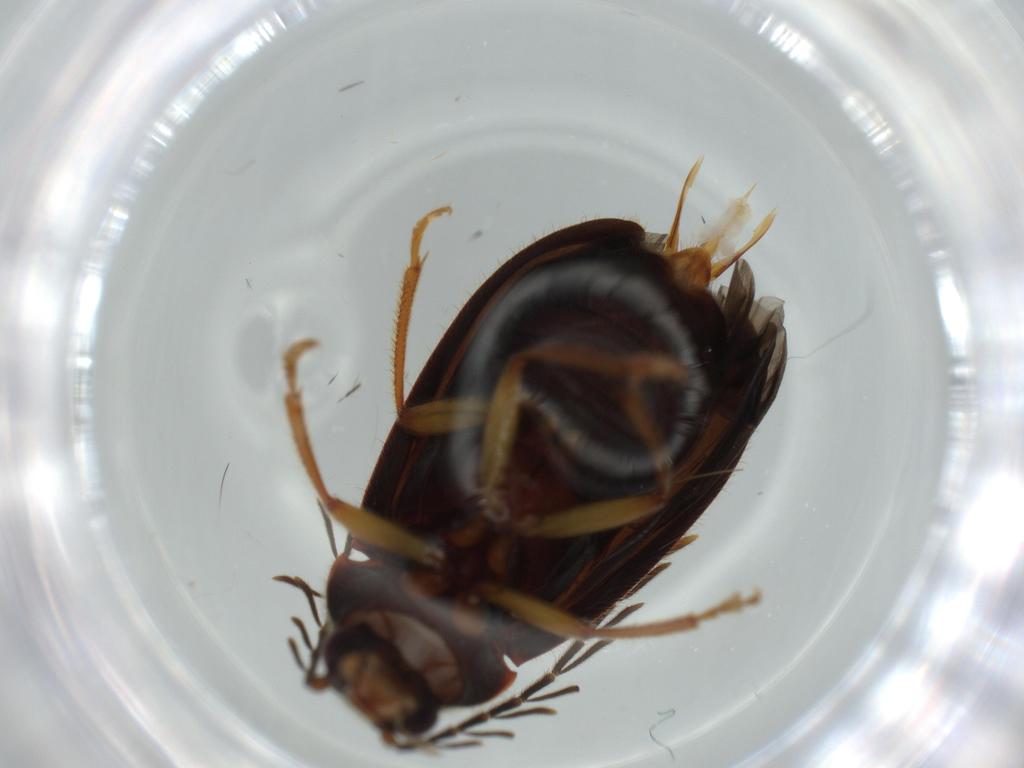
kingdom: Animalia
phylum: Arthropoda
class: Insecta
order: Coleoptera
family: Ptilodactylidae
